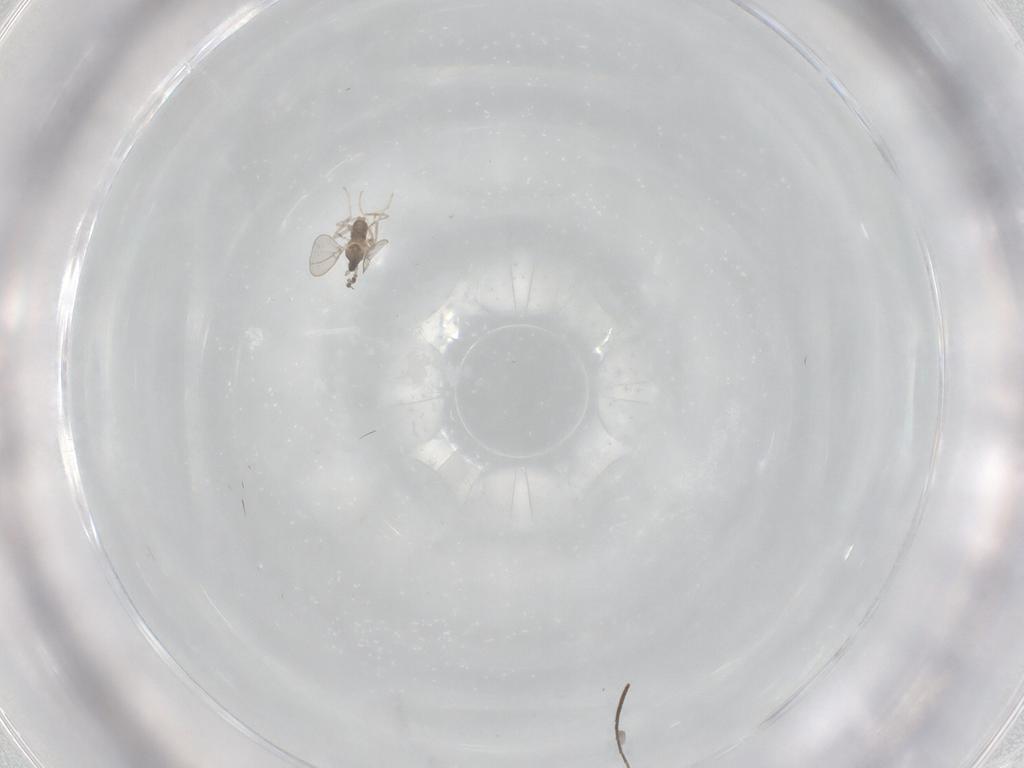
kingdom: Animalia
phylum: Arthropoda
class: Insecta
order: Diptera
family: Cecidomyiidae
